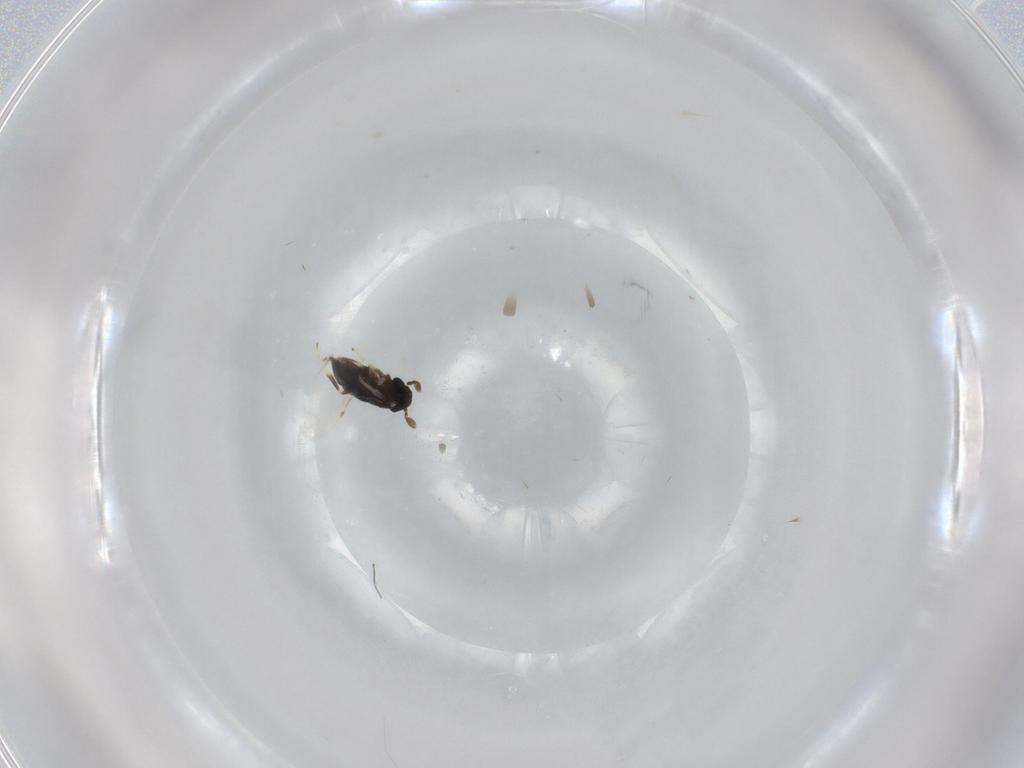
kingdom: Animalia
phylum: Arthropoda
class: Insecta
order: Hymenoptera
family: Encyrtidae
